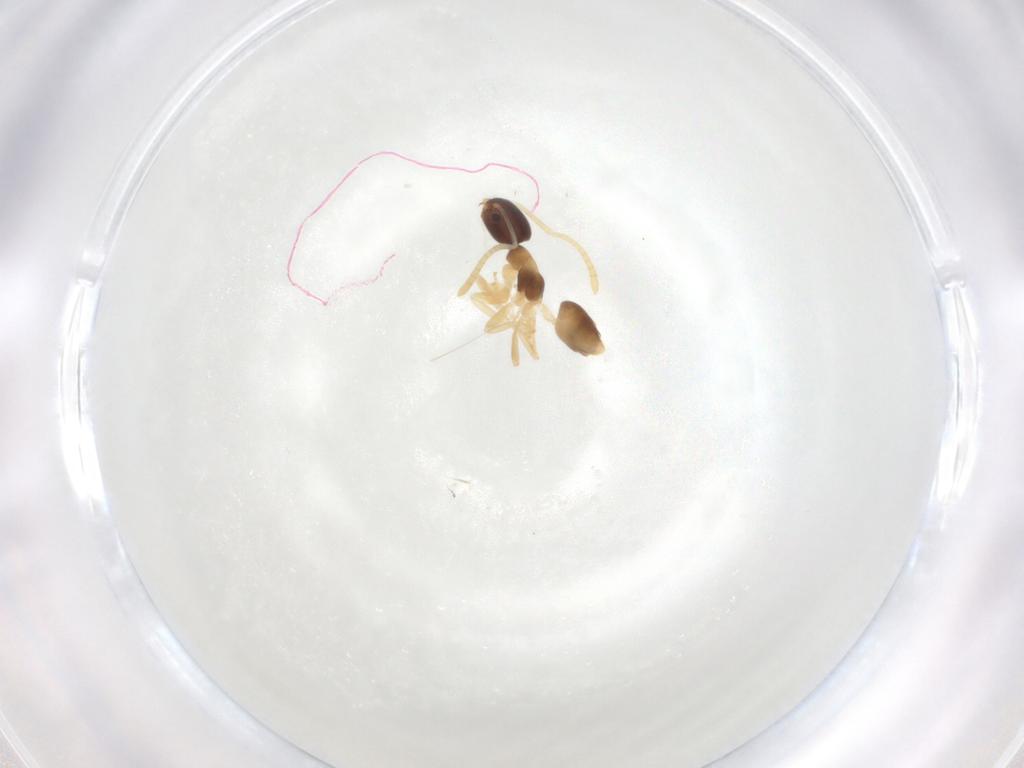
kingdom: Animalia
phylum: Arthropoda
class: Insecta
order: Hymenoptera
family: Formicidae
